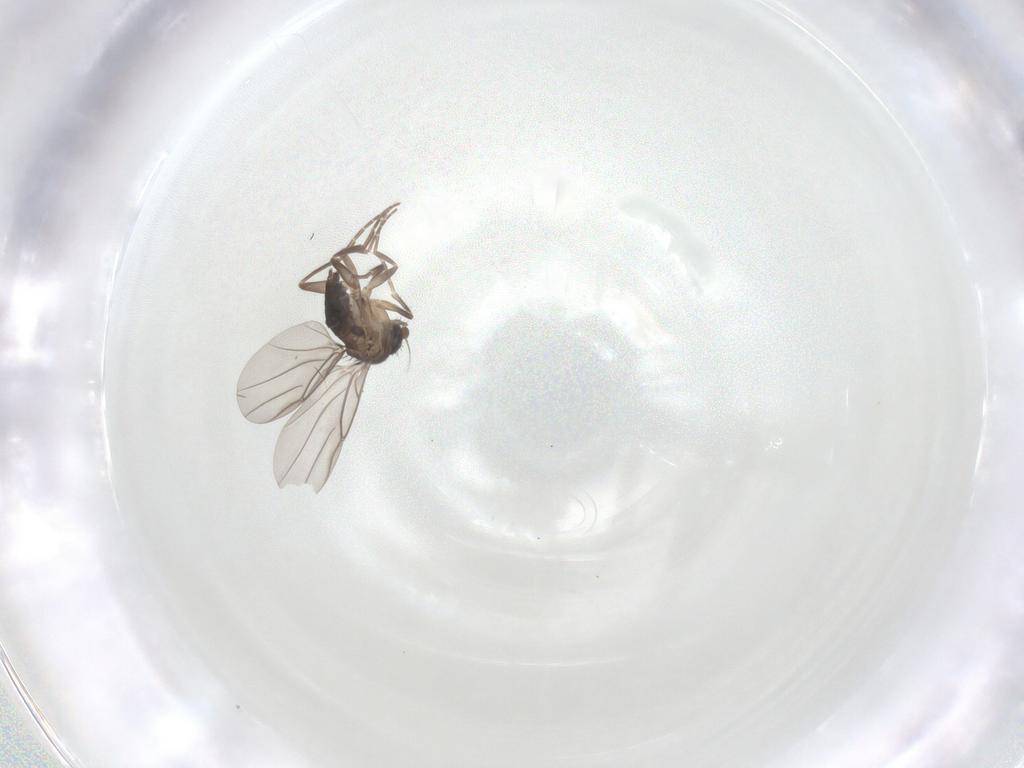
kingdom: Animalia
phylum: Arthropoda
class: Insecta
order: Diptera
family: Phoridae
